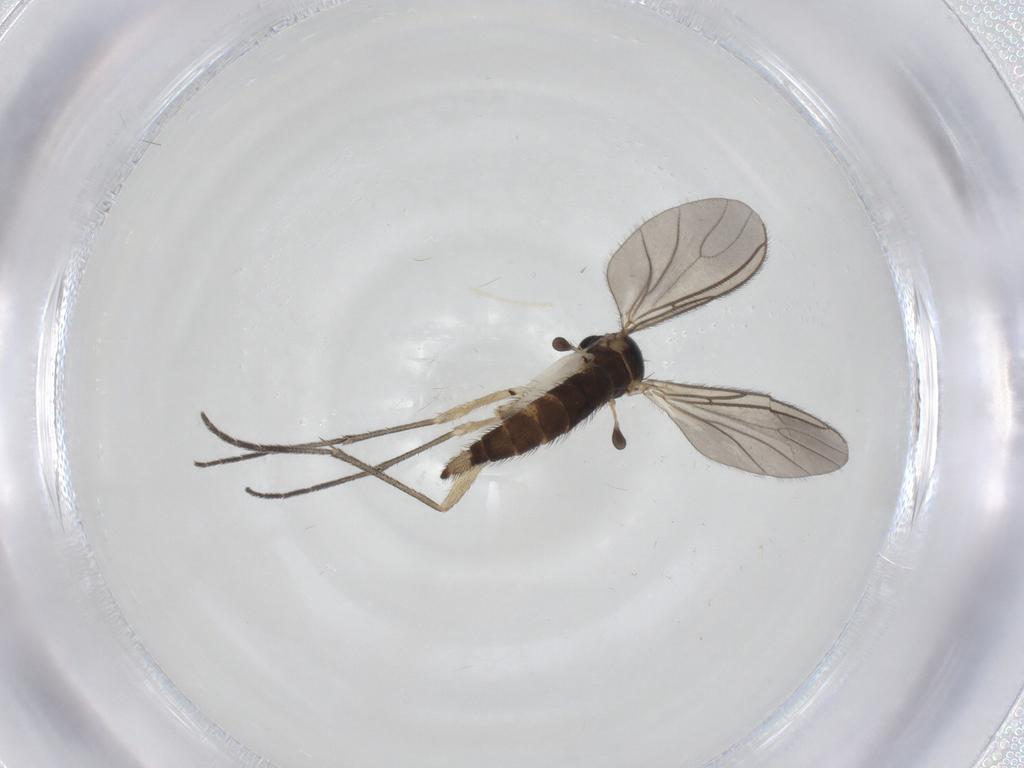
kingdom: Animalia
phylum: Arthropoda
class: Insecta
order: Diptera
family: Sciaridae
